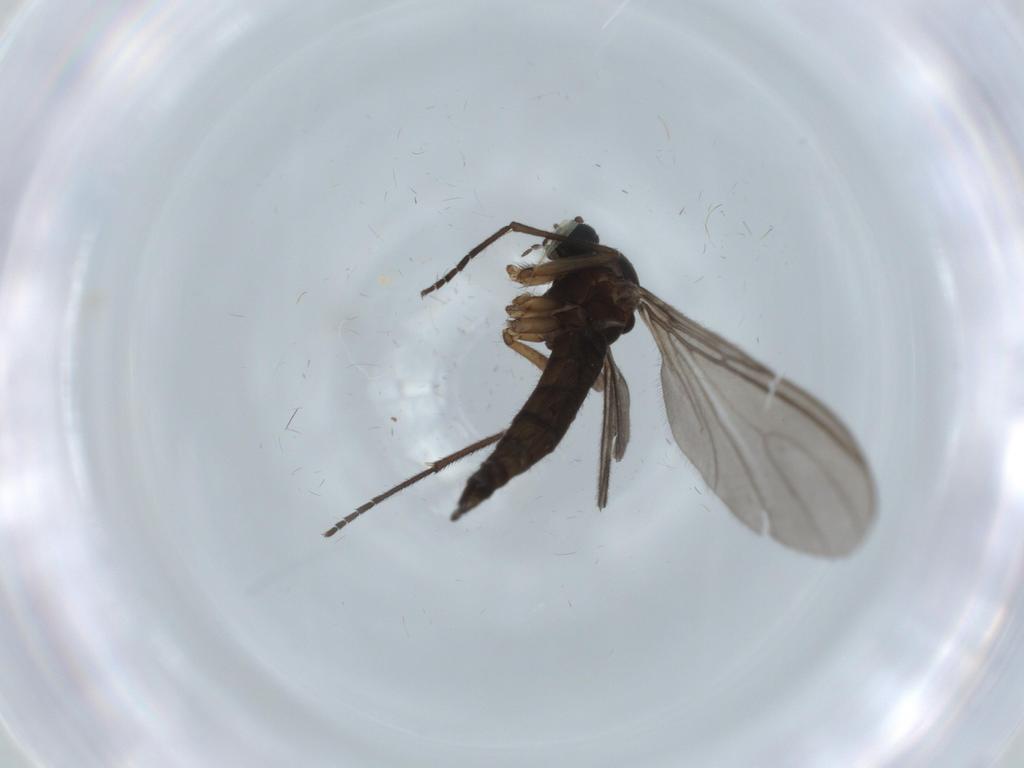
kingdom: Animalia
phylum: Arthropoda
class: Insecta
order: Diptera
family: Sciaridae
